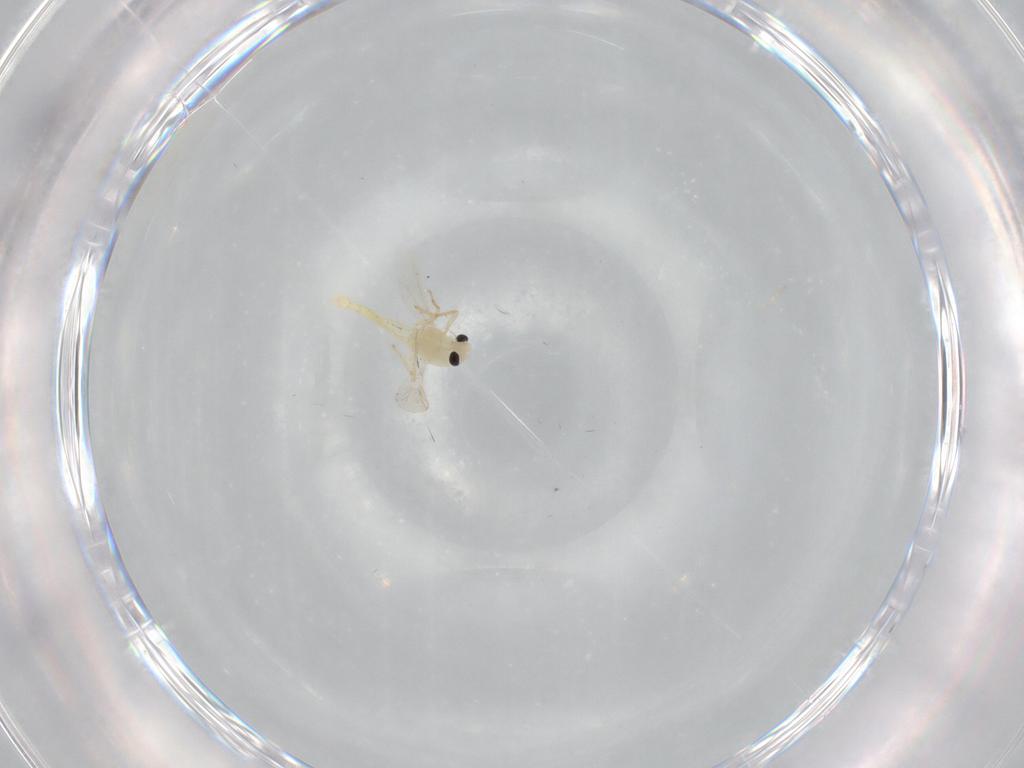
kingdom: Animalia
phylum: Arthropoda
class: Insecta
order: Diptera
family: Chironomidae
